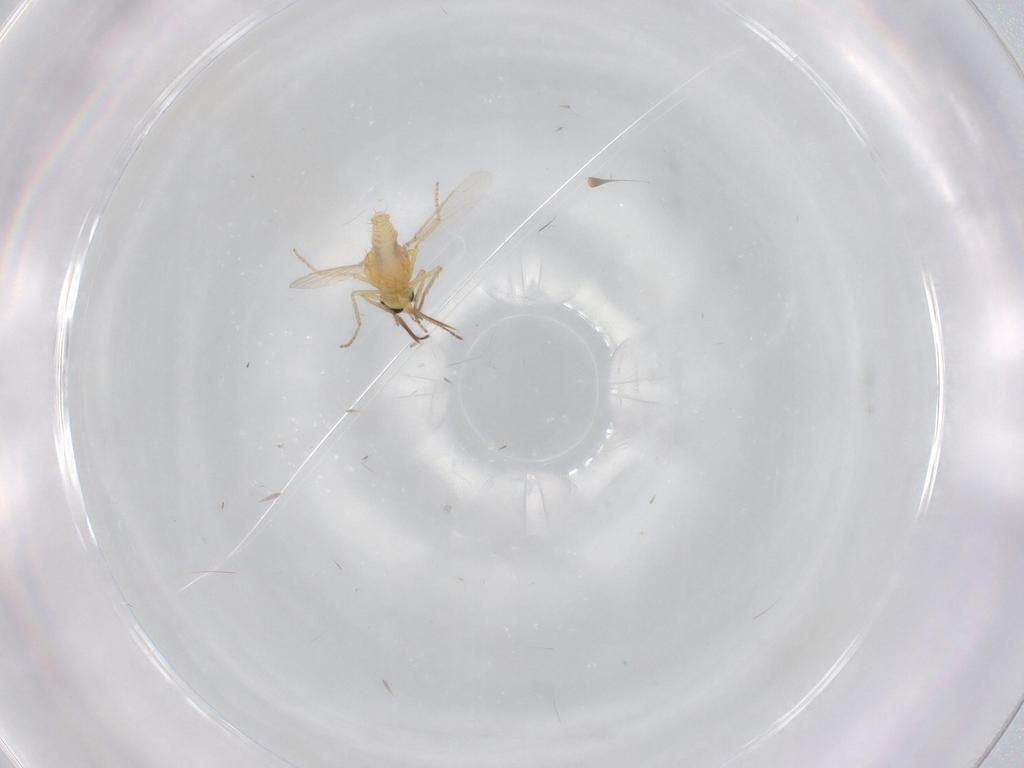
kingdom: Animalia
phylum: Arthropoda
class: Insecta
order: Diptera
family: Ceratopogonidae
